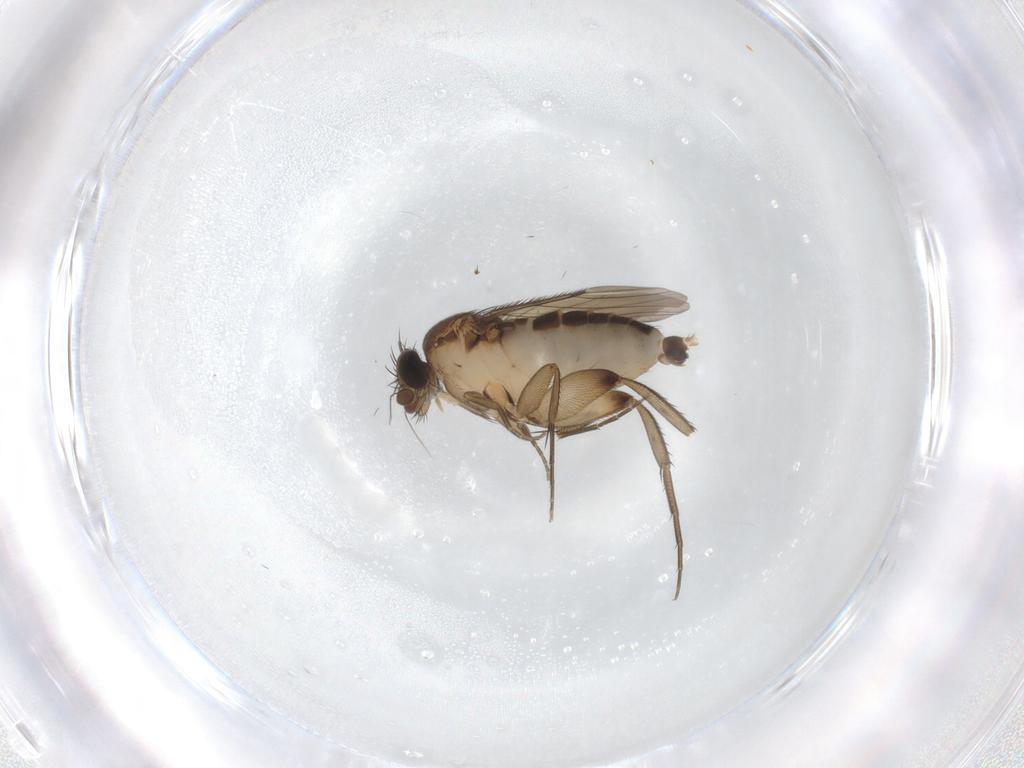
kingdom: Animalia
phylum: Arthropoda
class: Insecta
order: Diptera
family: Phoridae
